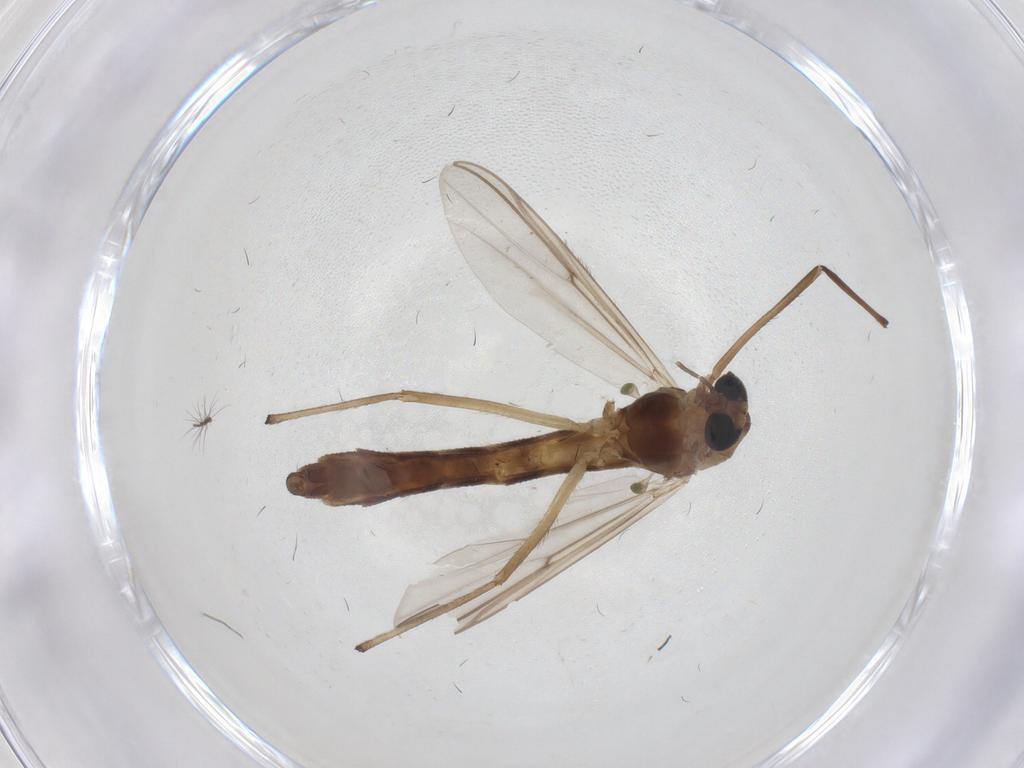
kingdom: Animalia
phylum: Arthropoda
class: Insecta
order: Diptera
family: Chironomidae
